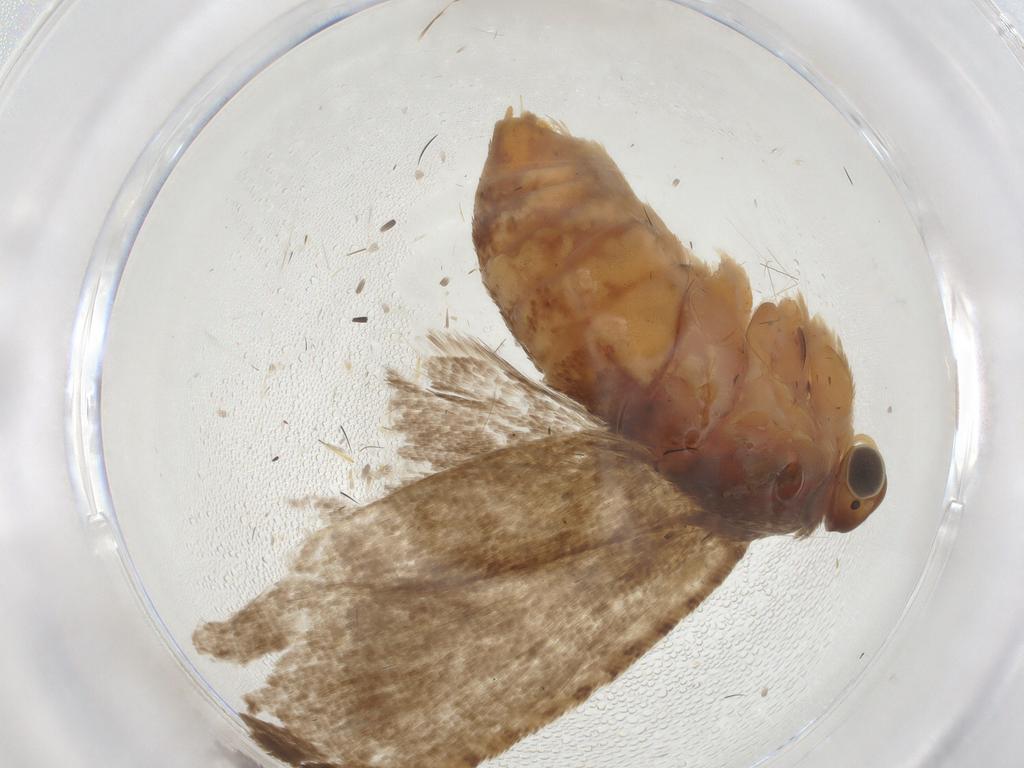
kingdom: Animalia
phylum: Arthropoda
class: Insecta
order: Lepidoptera
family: Tortricidae
